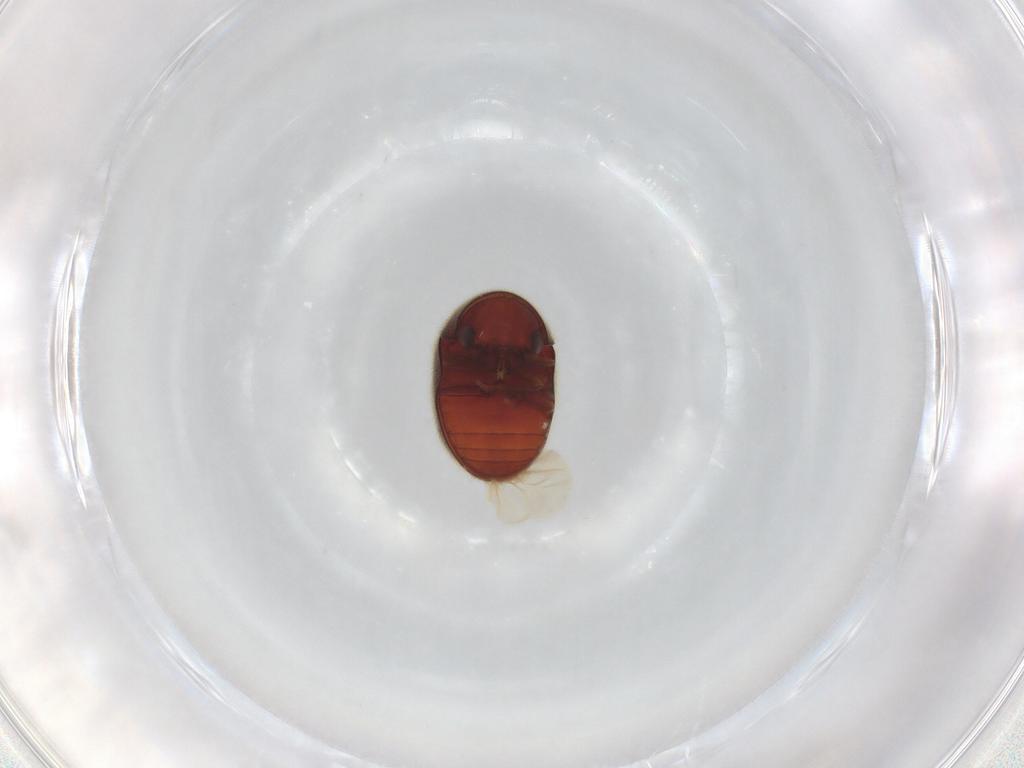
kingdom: Animalia
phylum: Arthropoda
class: Insecta
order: Coleoptera
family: Ptinidae
